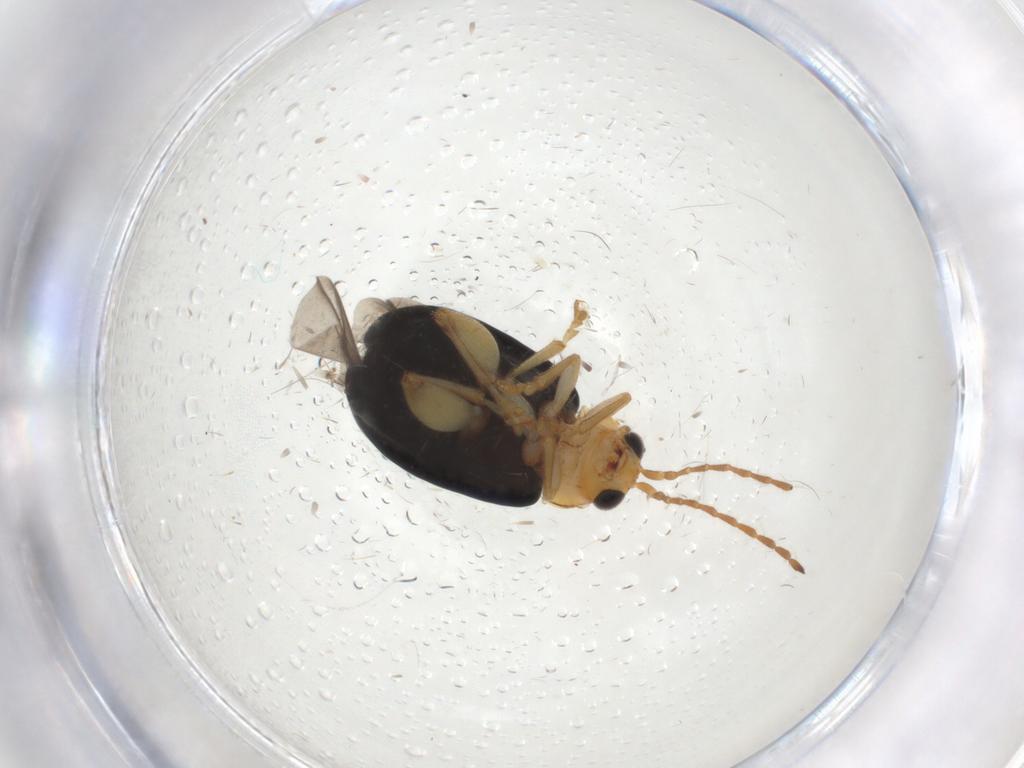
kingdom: Animalia
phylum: Arthropoda
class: Insecta
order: Coleoptera
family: Chrysomelidae
